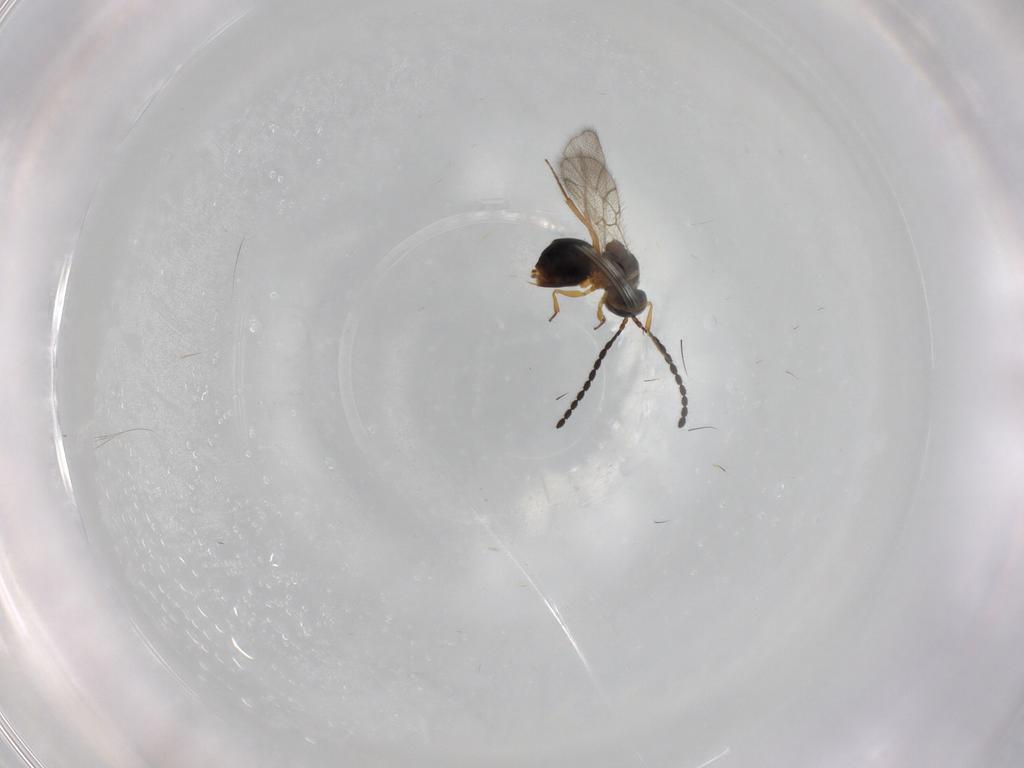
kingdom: Animalia
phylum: Arthropoda
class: Insecta
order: Hymenoptera
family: Figitidae
